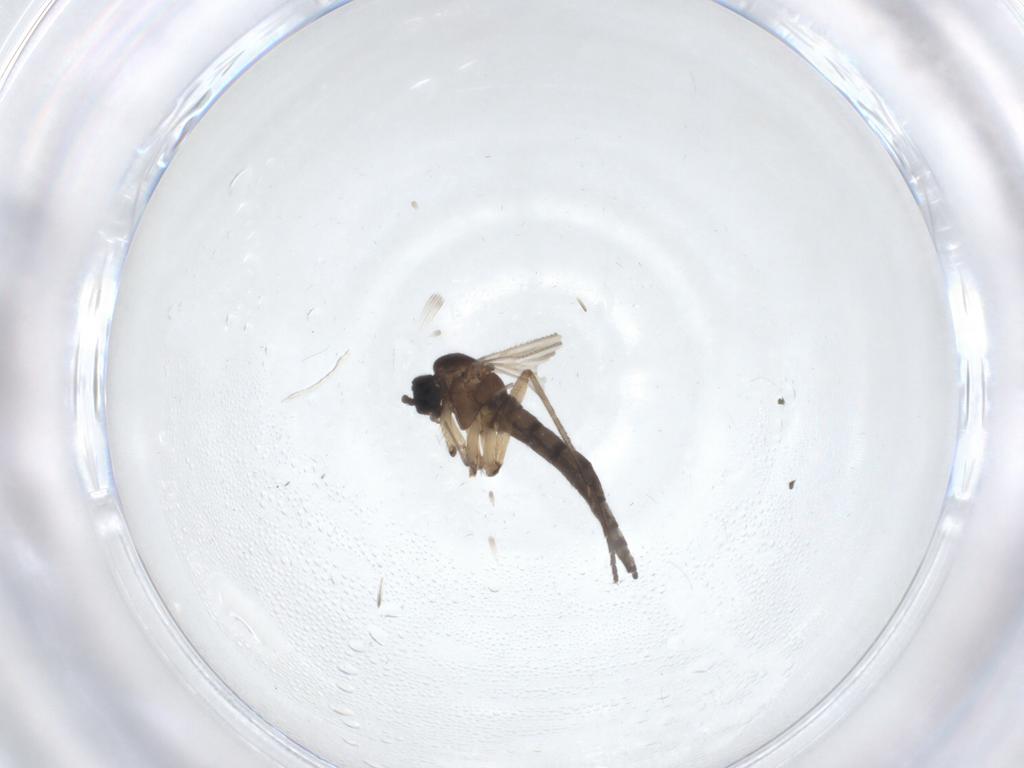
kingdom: Animalia
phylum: Arthropoda
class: Insecta
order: Diptera
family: Sciaridae
